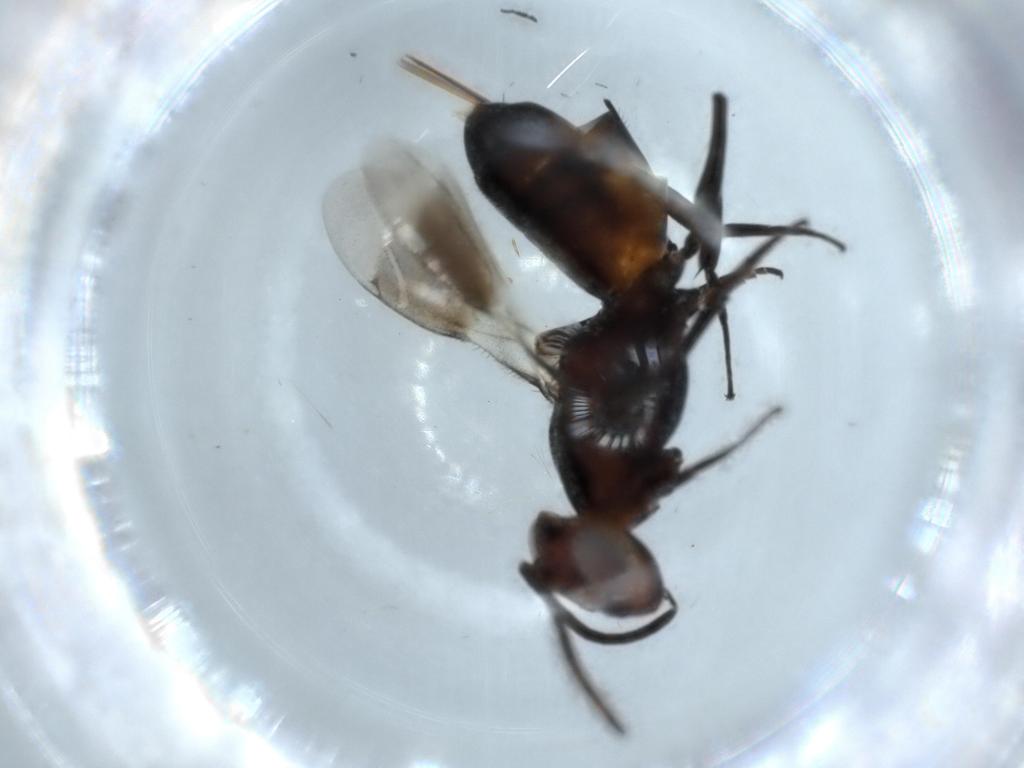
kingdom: Animalia
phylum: Arthropoda
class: Insecta
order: Hymenoptera
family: Eupelmidae
